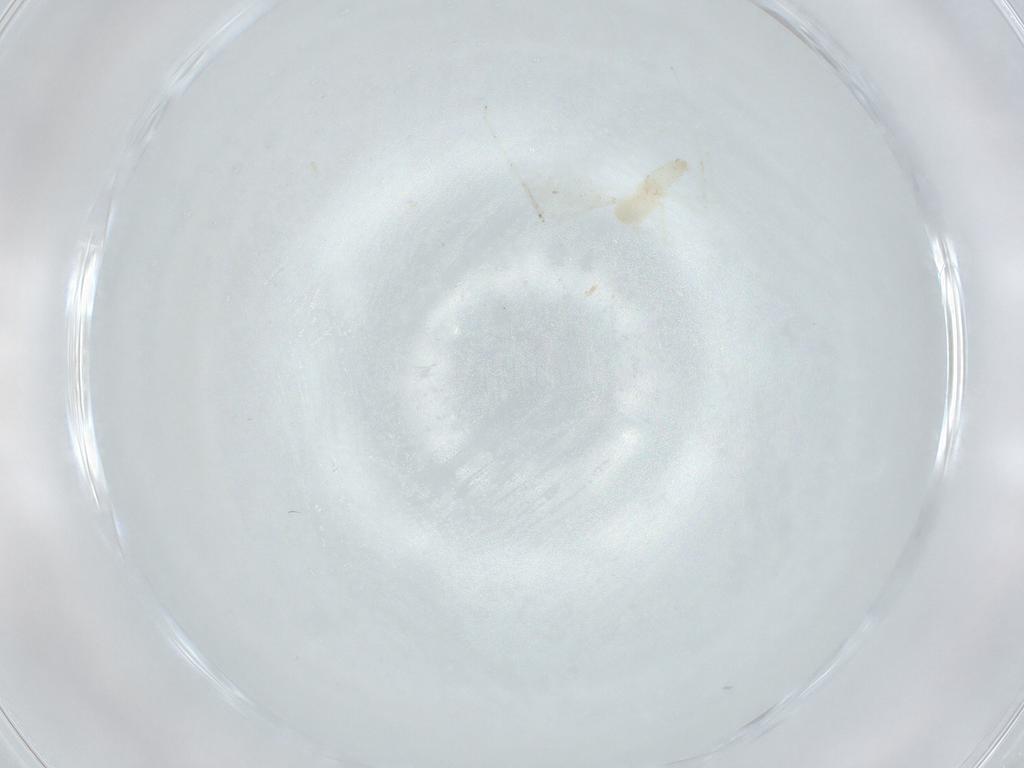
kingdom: Animalia
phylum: Arthropoda
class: Insecta
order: Diptera
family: Cecidomyiidae
